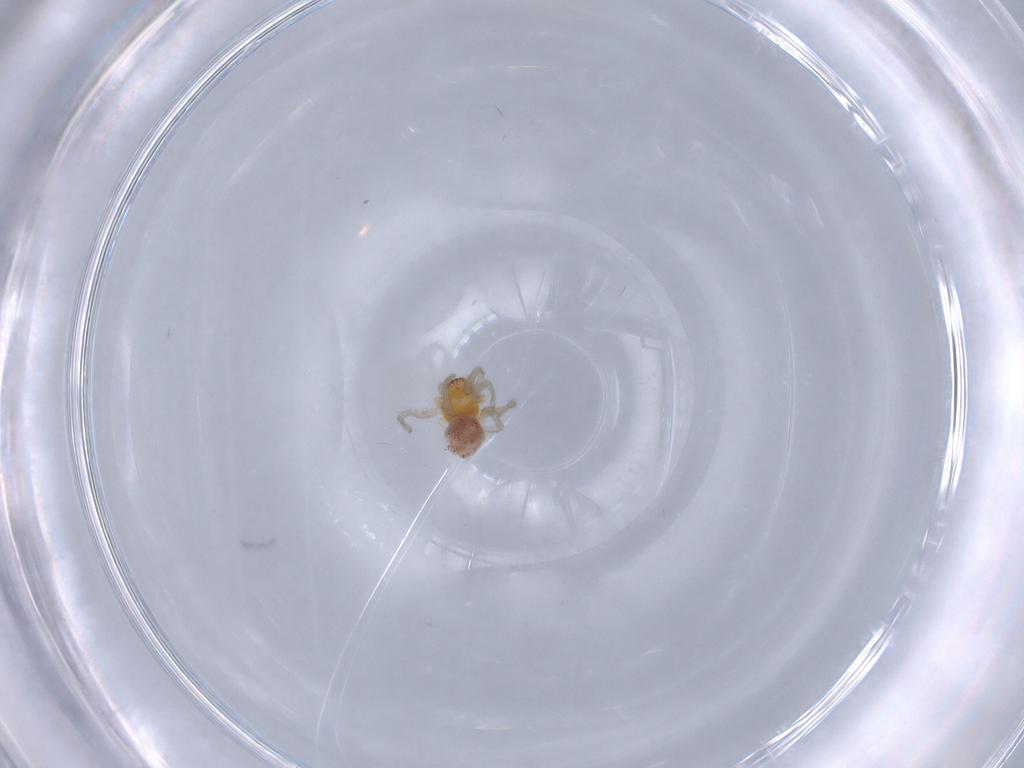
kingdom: Animalia
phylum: Arthropoda
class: Arachnida
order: Araneae
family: Dictynidae
